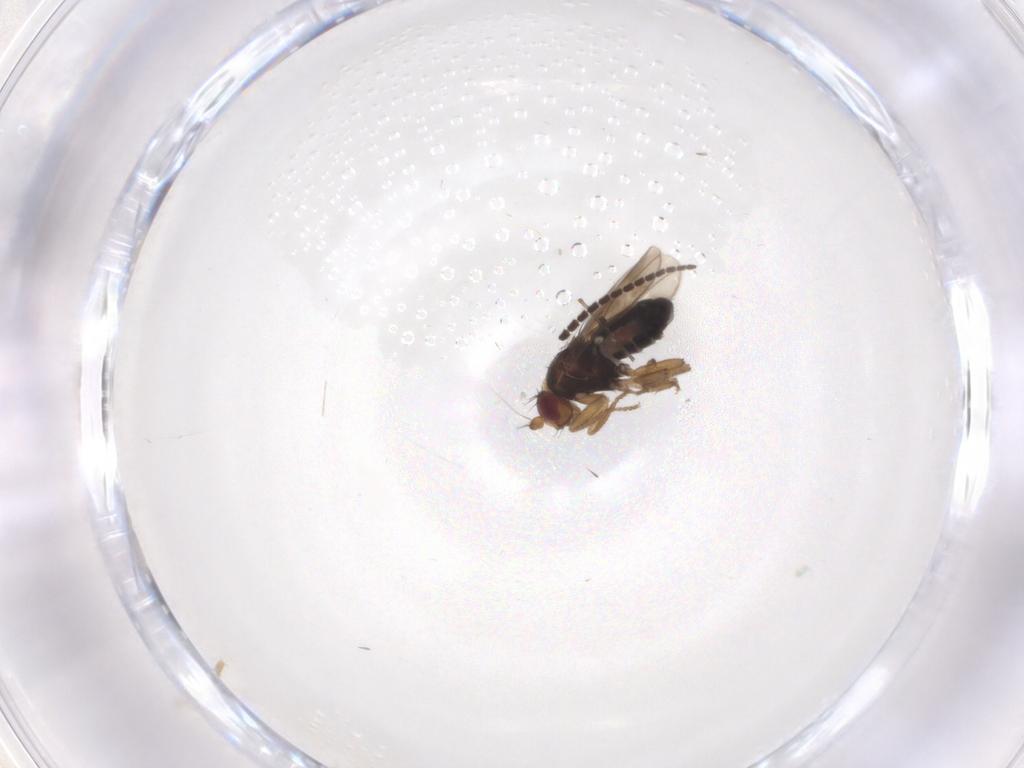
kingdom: Animalia
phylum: Arthropoda
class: Insecta
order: Diptera
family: Sphaeroceridae
